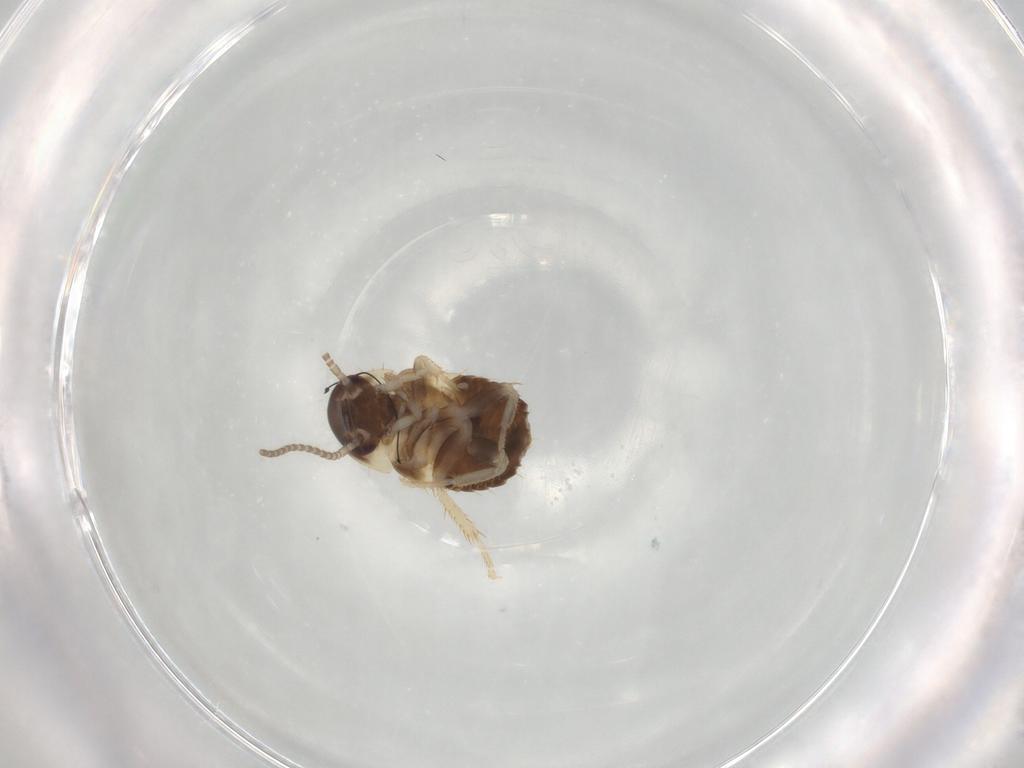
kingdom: Animalia
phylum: Arthropoda
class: Insecta
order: Blattodea
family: Ectobiidae
